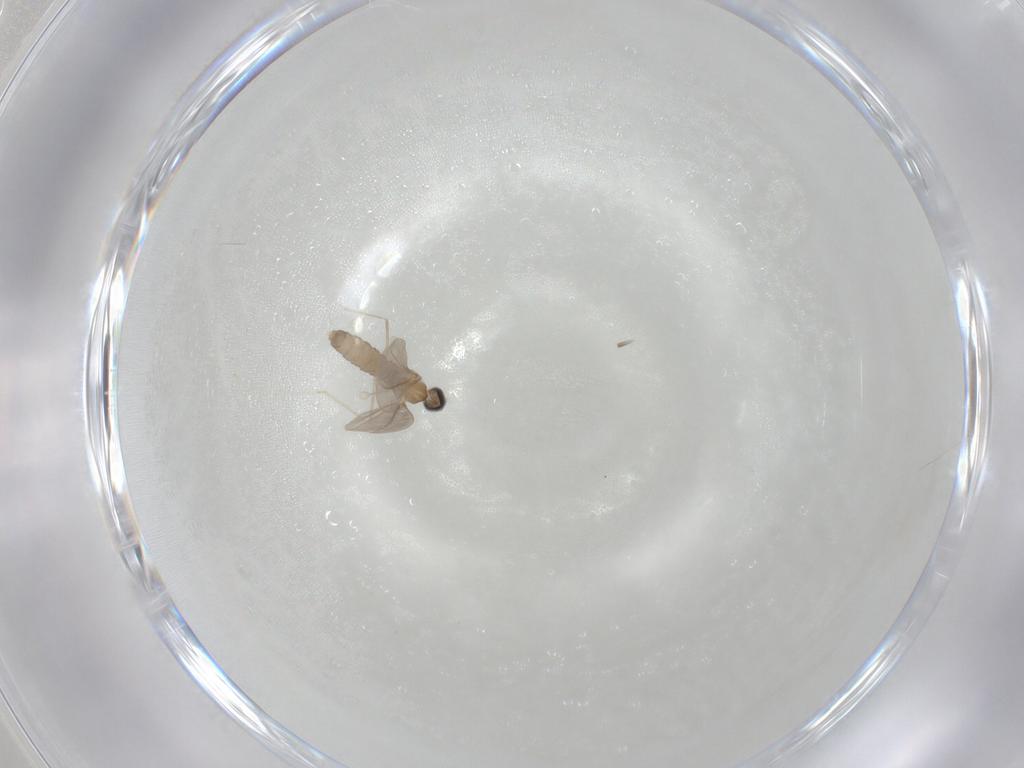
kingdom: Animalia
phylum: Arthropoda
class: Insecta
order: Diptera
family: Cecidomyiidae
